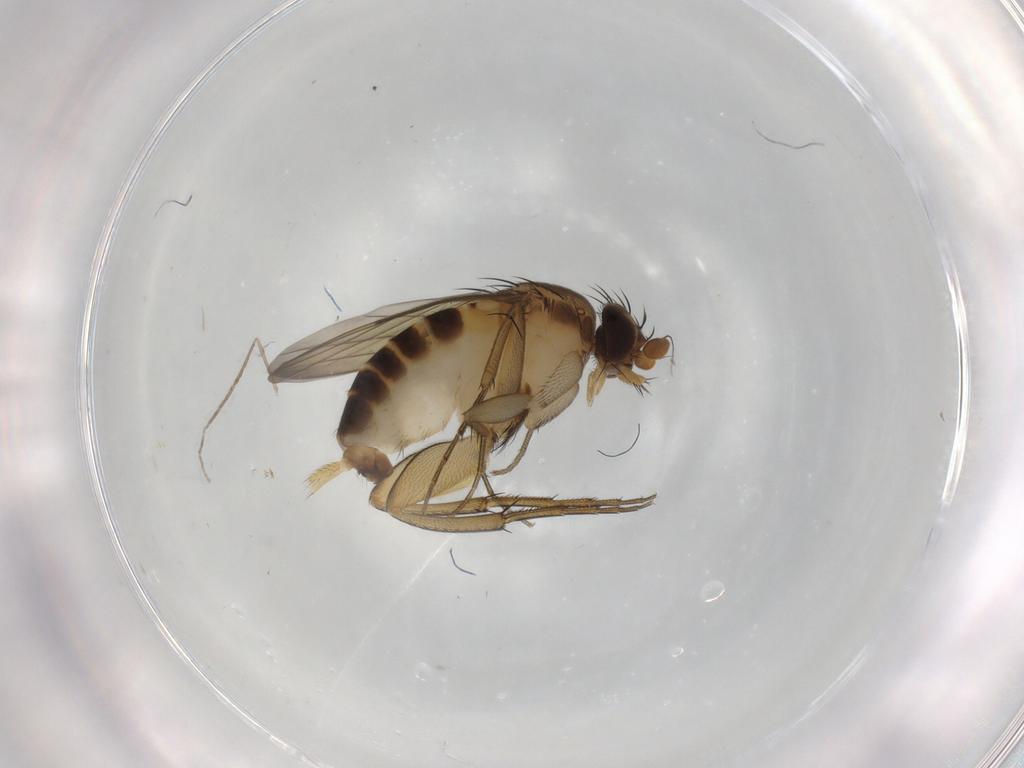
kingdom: Animalia
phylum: Arthropoda
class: Insecta
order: Diptera
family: Phoridae
